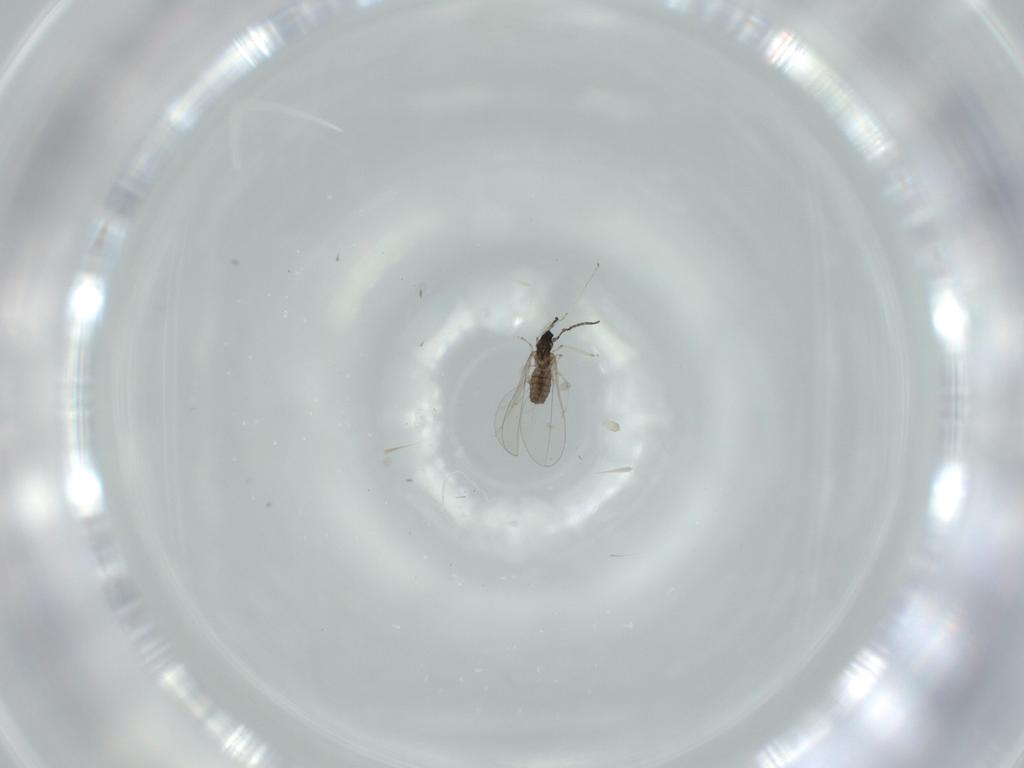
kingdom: Animalia
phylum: Arthropoda
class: Insecta
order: Diptera
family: Cecidomyiidae
